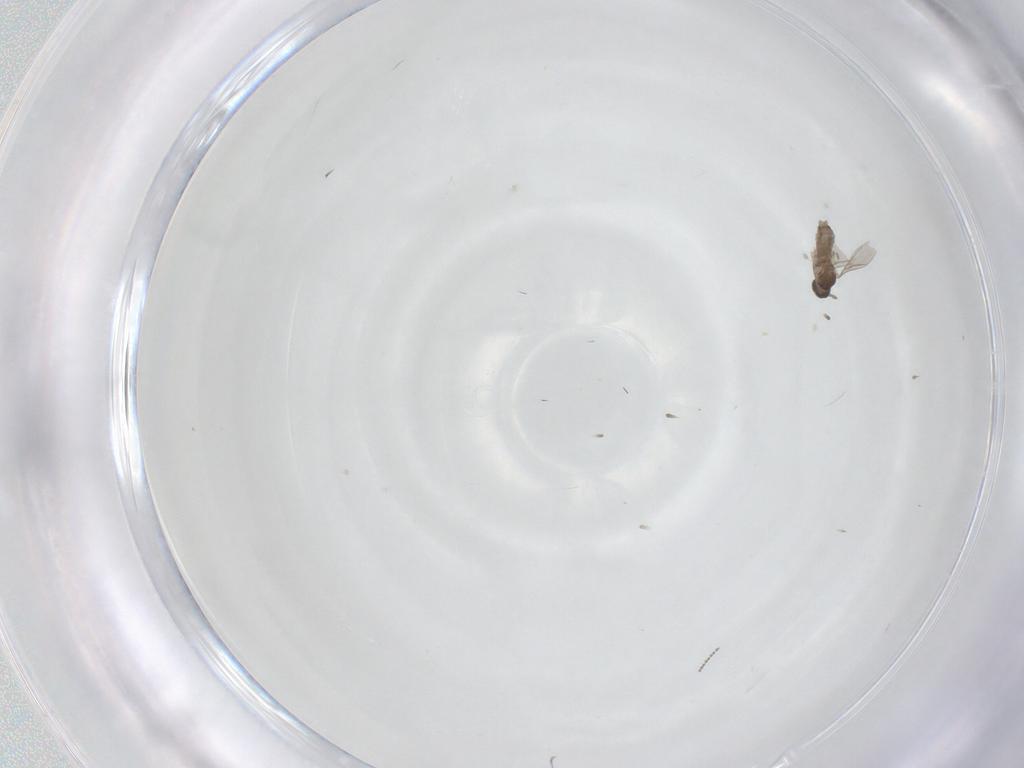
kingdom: Animalia
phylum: Arthropoda
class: Insecta
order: Diptera
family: Cecidomyiidae
